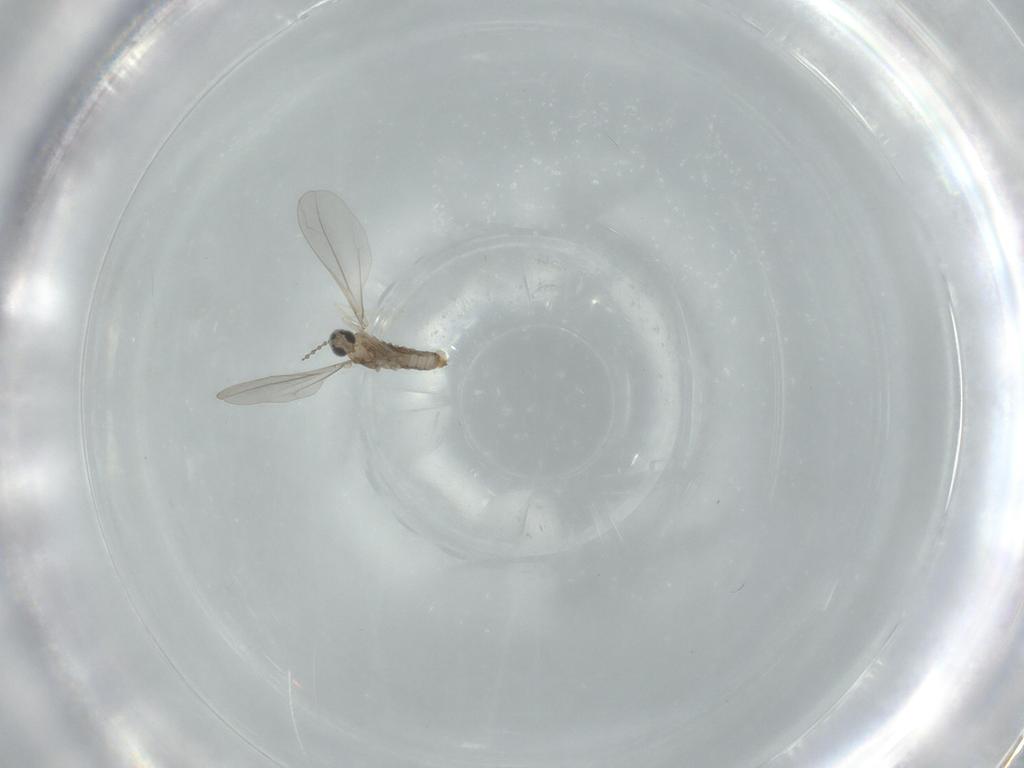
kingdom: Animalia
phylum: Arthropoda
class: Insecta
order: Diptera
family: Cecidomyiidae
